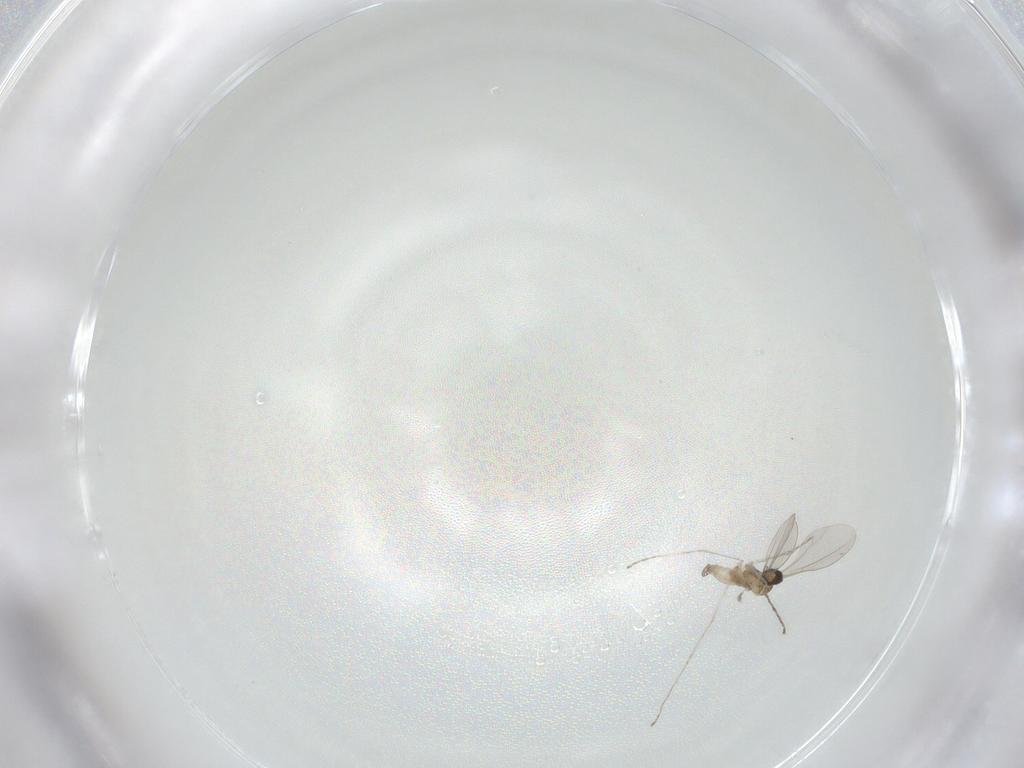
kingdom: Animalia
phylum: Arthropoda
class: Insecta
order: Diptera
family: Cecidomyiidae
